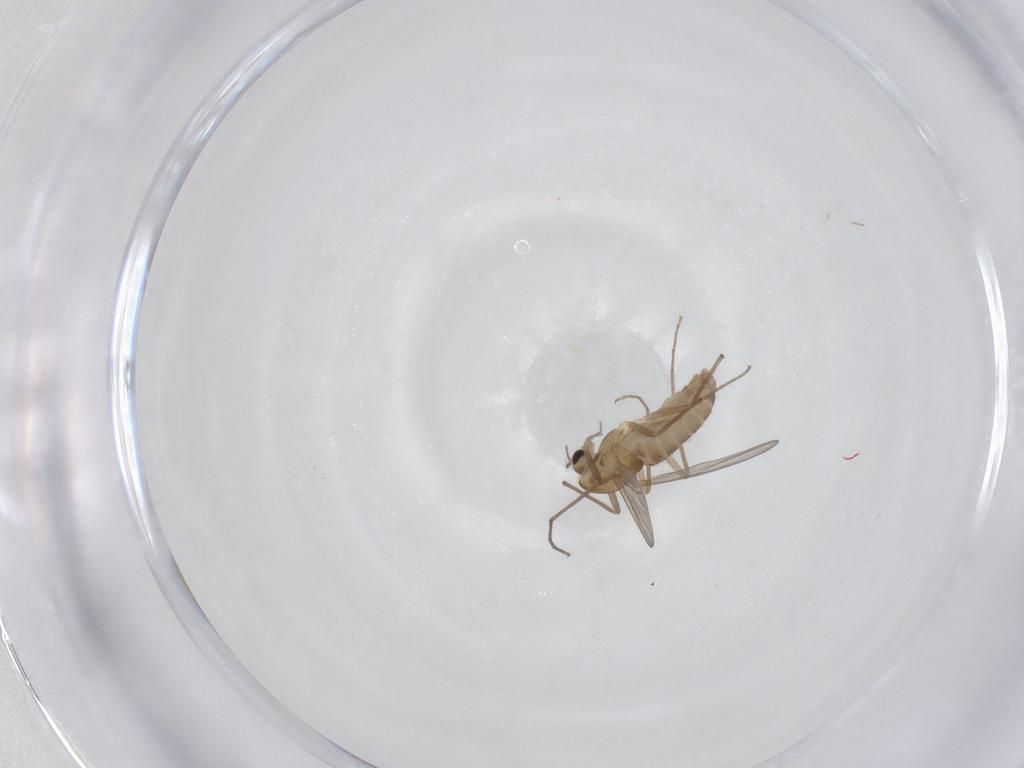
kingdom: Animalia
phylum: Arthropoda
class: Insecta
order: Diptera
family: Chironomidae
